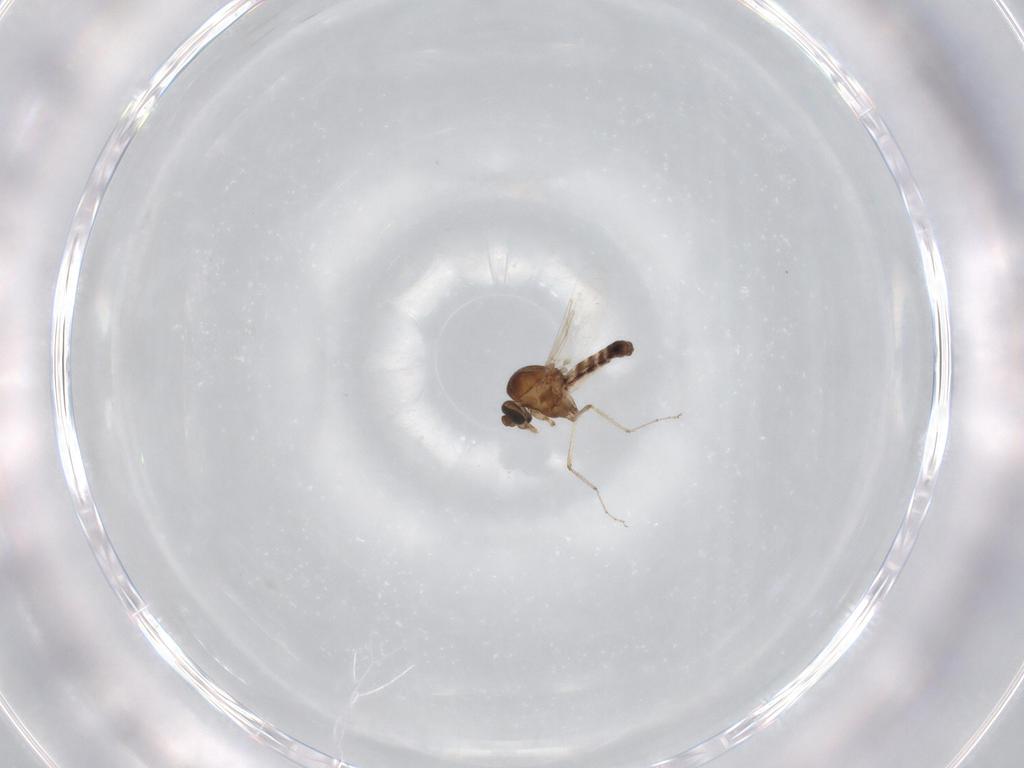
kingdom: Animalia
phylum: Arthropoda
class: Insecta
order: Diptera
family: Ceratopogonidae
